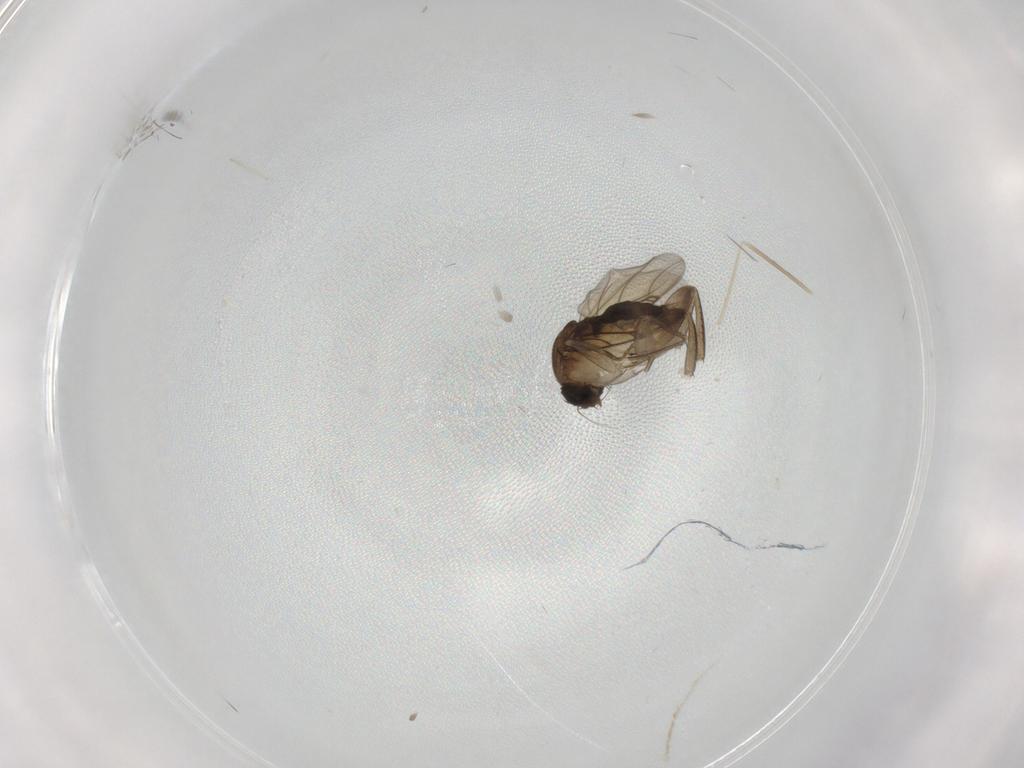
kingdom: Animalia
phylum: Arthropoda
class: Insecta
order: Diptera
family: Phoridae
